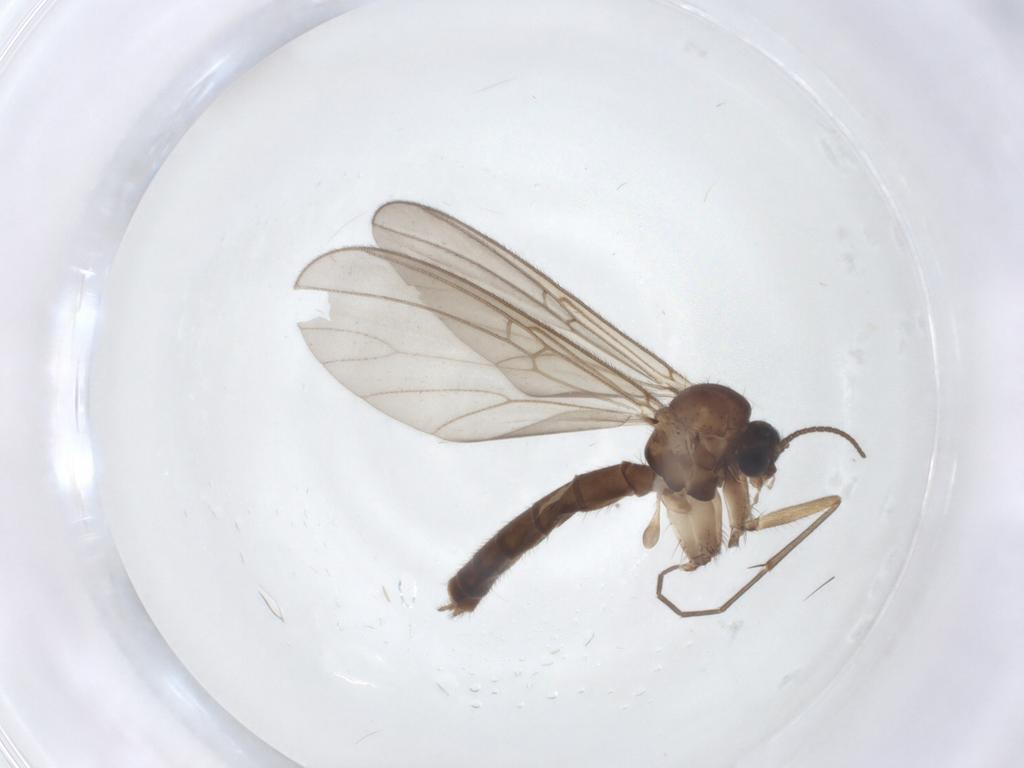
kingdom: Animalia
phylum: Arthropoda
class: Insecta
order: Diptera
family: Mycetophilidae
